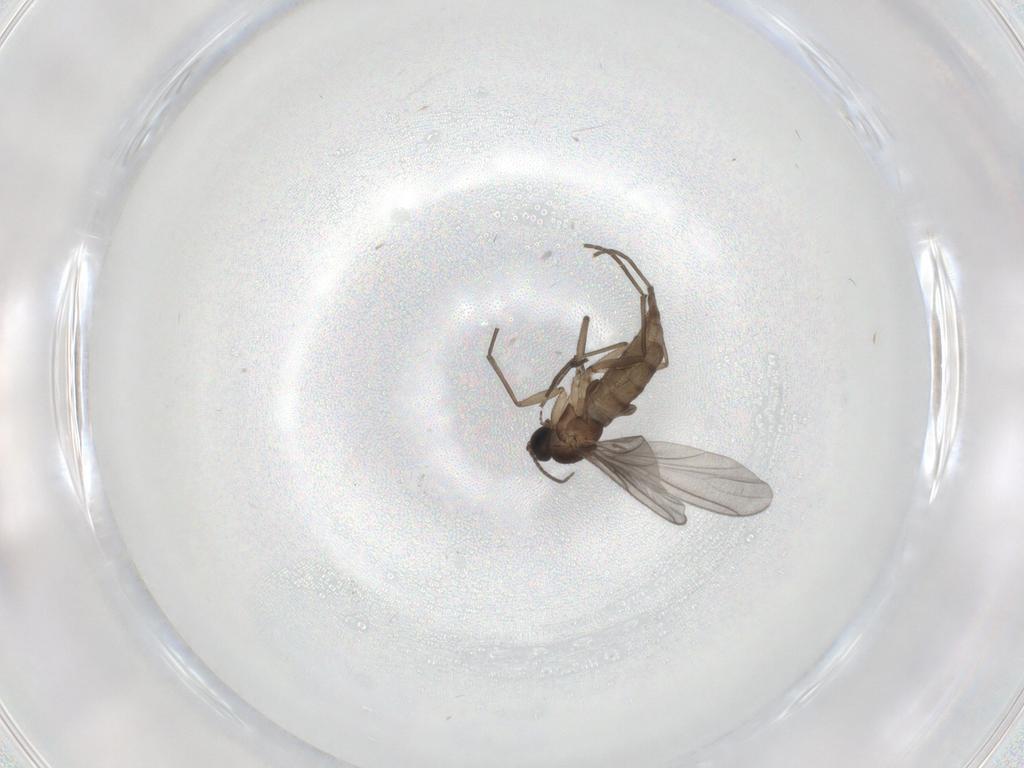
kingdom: Animalia
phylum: Arthropoda
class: Insecta
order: Diptera
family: Sciaridae
